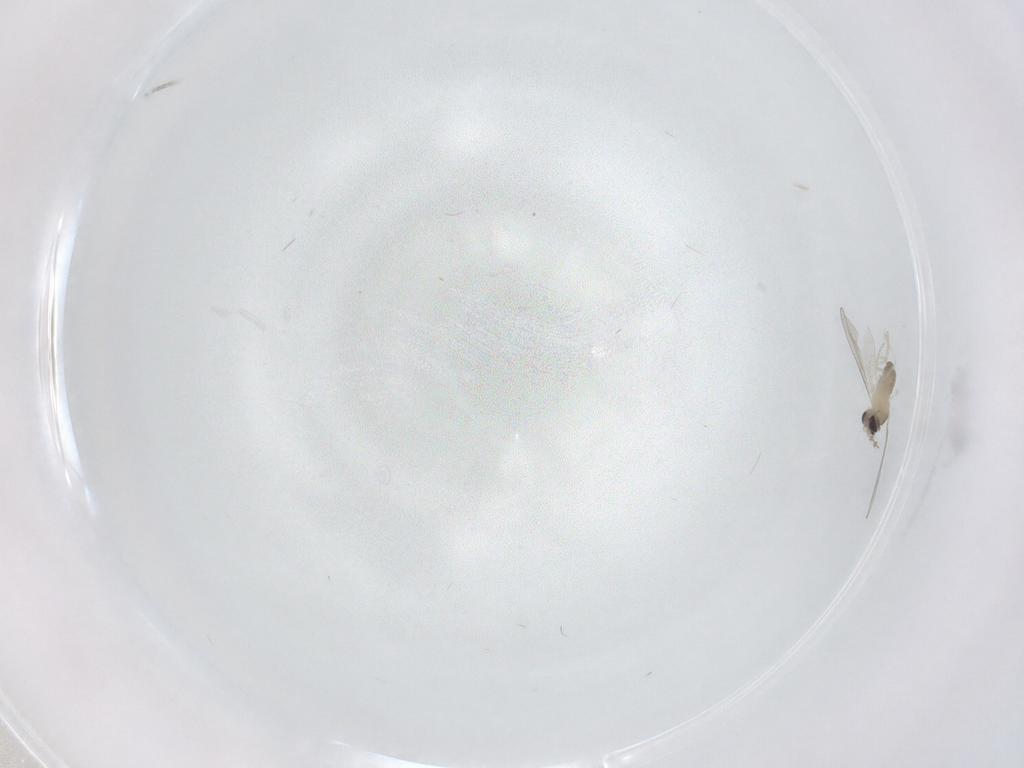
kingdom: Animalia
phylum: Arthropoda
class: Insecta
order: Diptera
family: Cecidomyiidae
